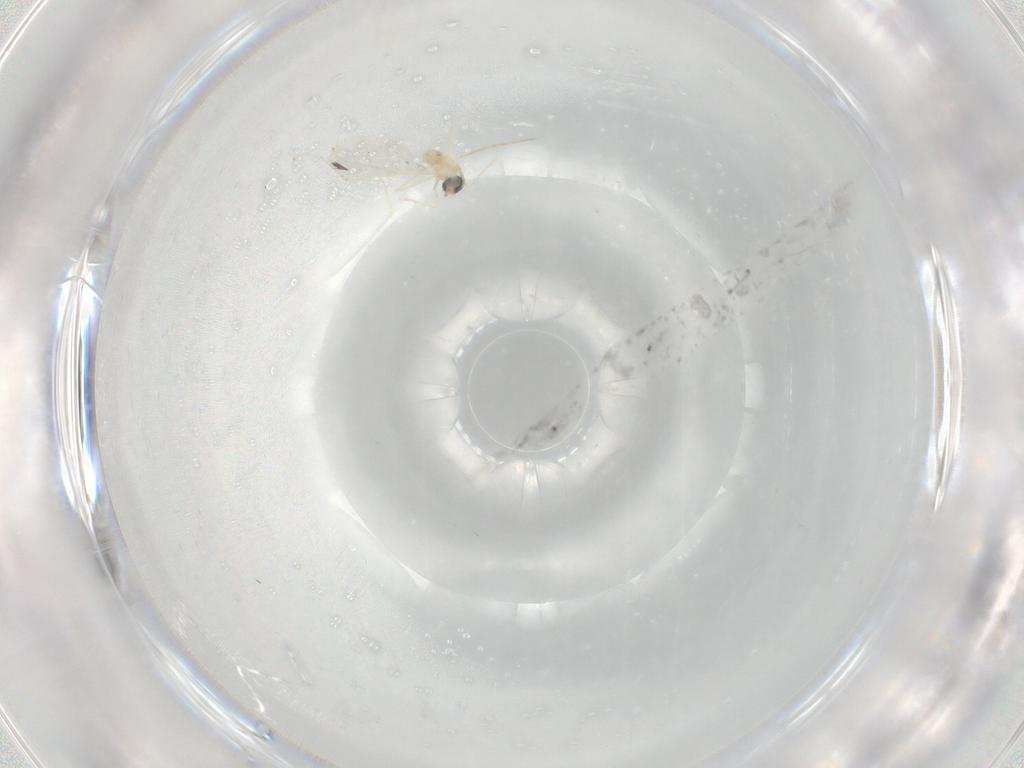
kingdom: Animalia
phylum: Arthropoda
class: Insecta
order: Diptera
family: Cecidomyiidae
